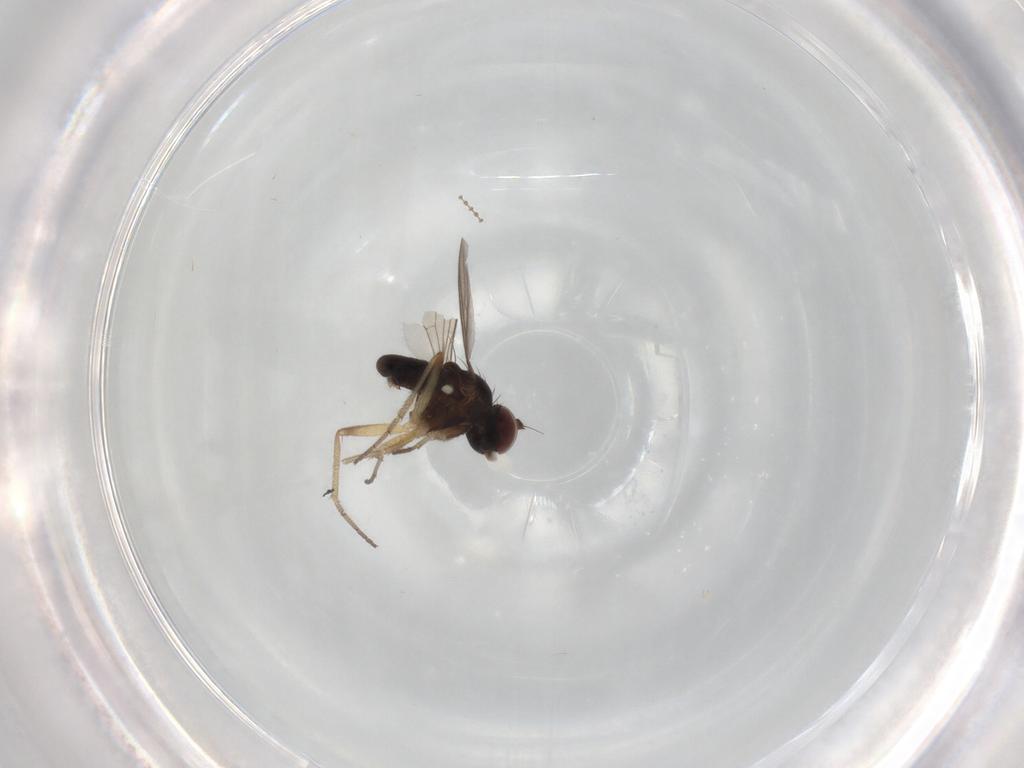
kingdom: Animalia
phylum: Arthropoda
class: Insecta
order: Diptera
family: Dolichopodidae
